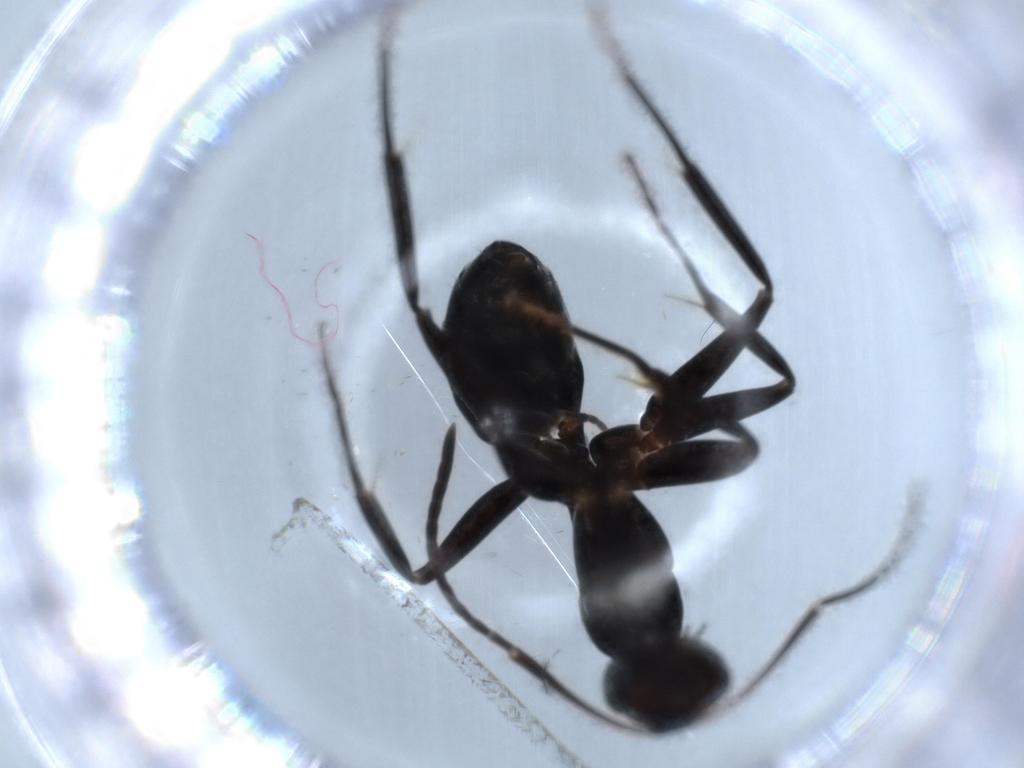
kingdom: Animalia
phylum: Arthropoda
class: Insecta
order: Hymenoptera
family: Formicidae
